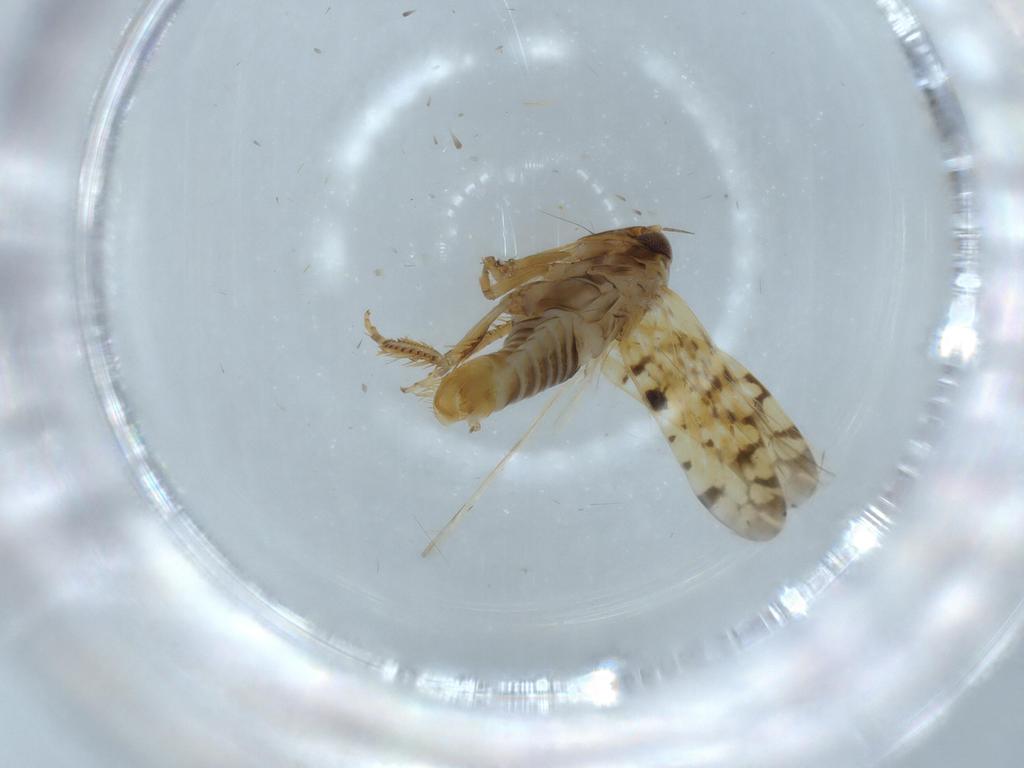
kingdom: Animalia
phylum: Arthropoda
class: Insecta
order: Hemiptera
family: Cicadellidae
